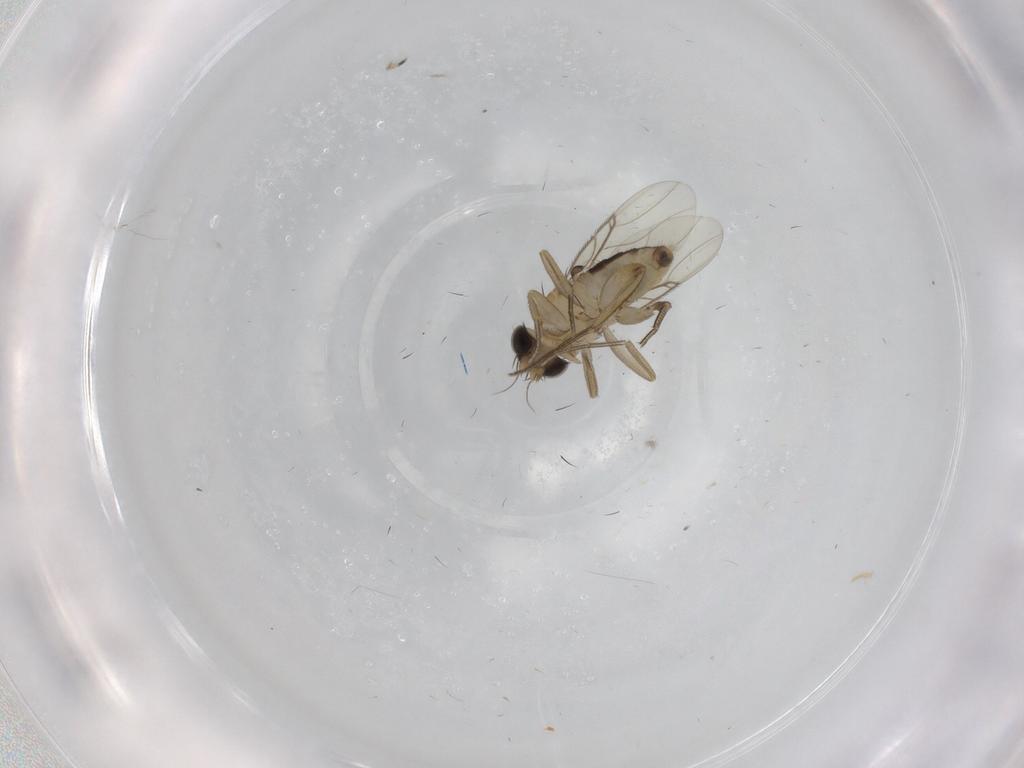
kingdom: Animalia
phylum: Arthropoda
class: Insecta
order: Diptera
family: Phoridae
